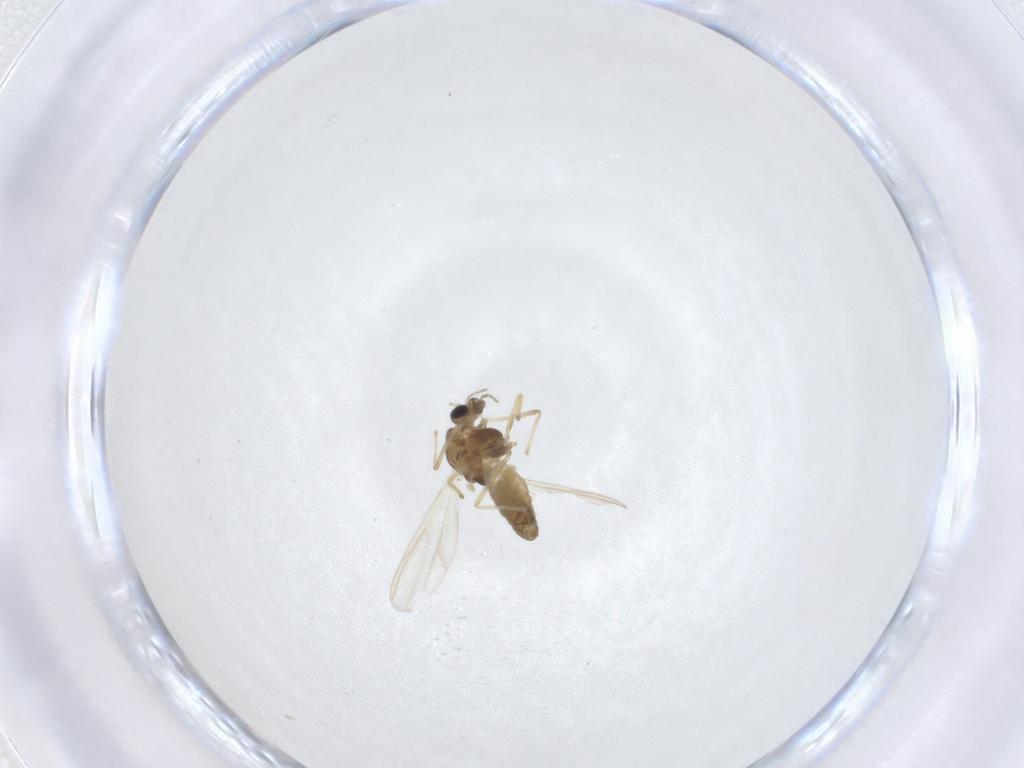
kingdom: Animalia
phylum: Arthropoda
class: Insecta
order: Diptera
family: Chironomidae
